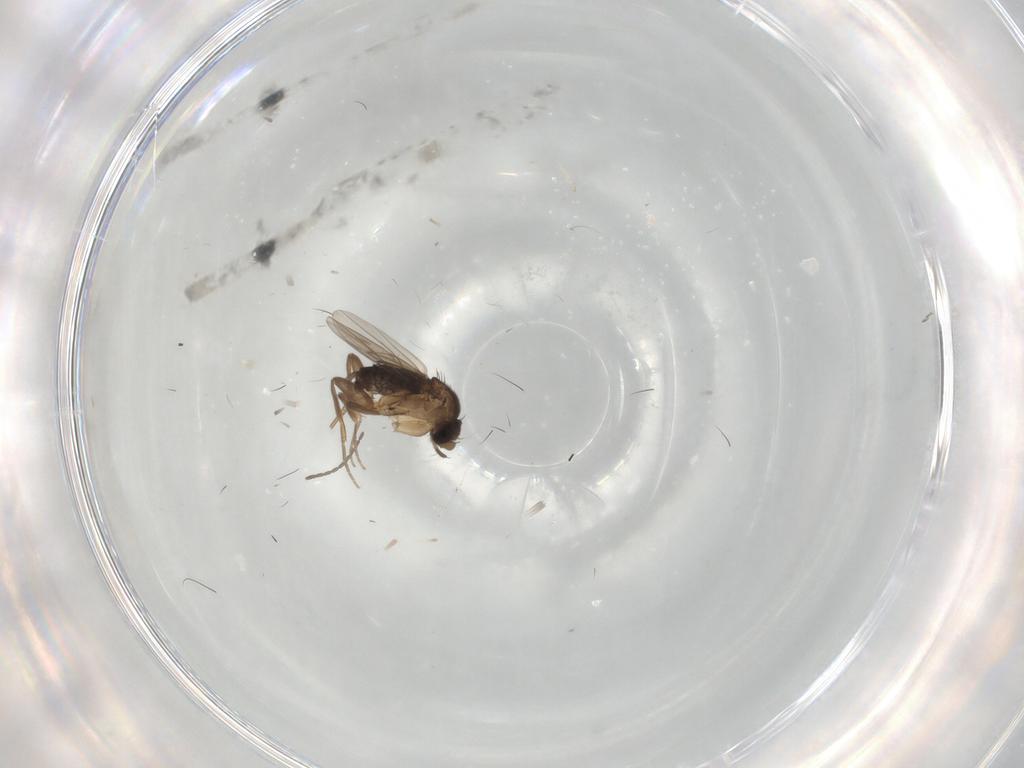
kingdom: Animalia
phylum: Arthropoda
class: Insecta
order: Diptera
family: Phoridae
